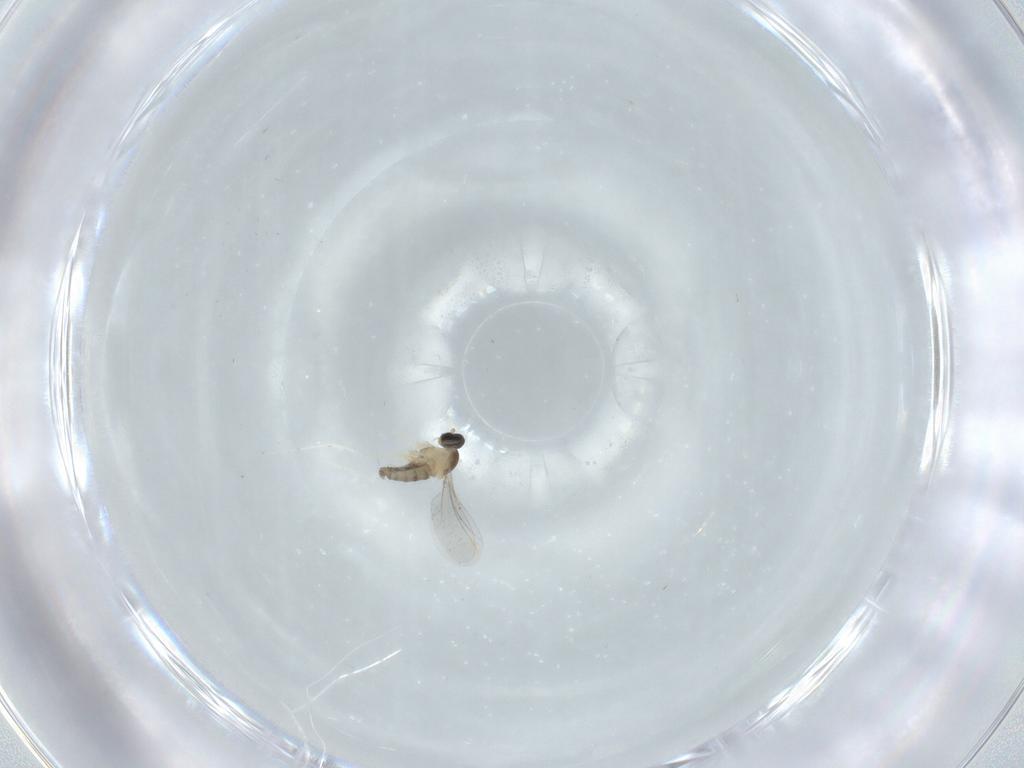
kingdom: Animalia
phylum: Arthropoda
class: Insecta
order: Diptera
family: Cecidomyiidae
